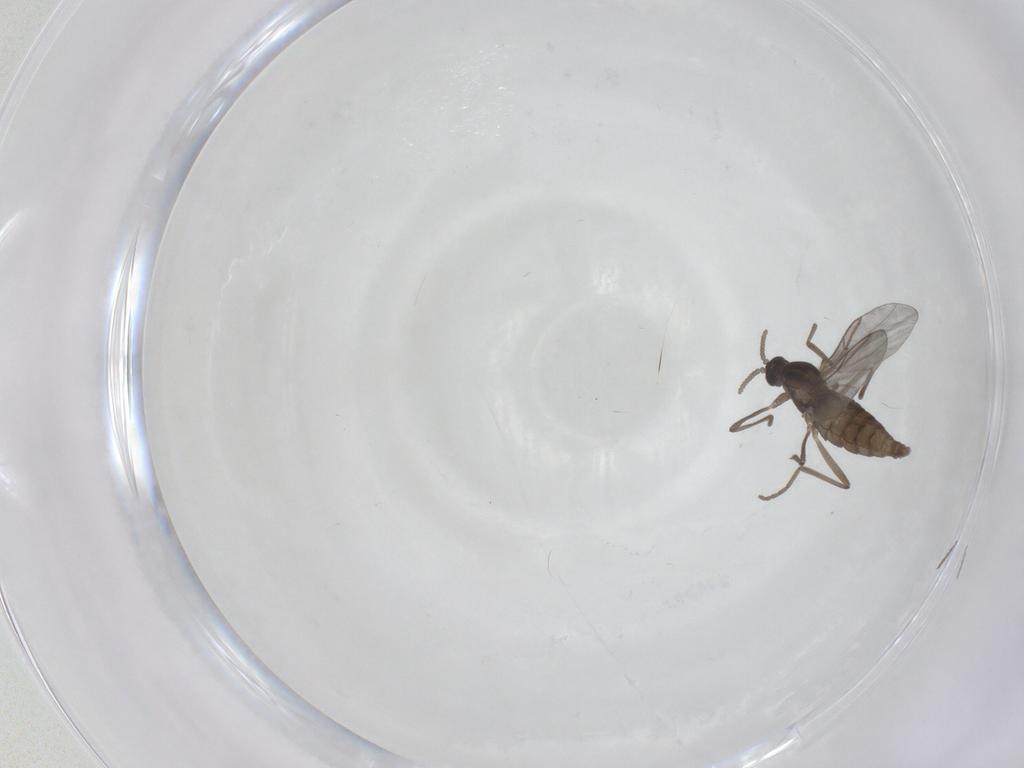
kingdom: Animalia
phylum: Arthropoda
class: Insecta
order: Diptera
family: Cecidomyiidae
